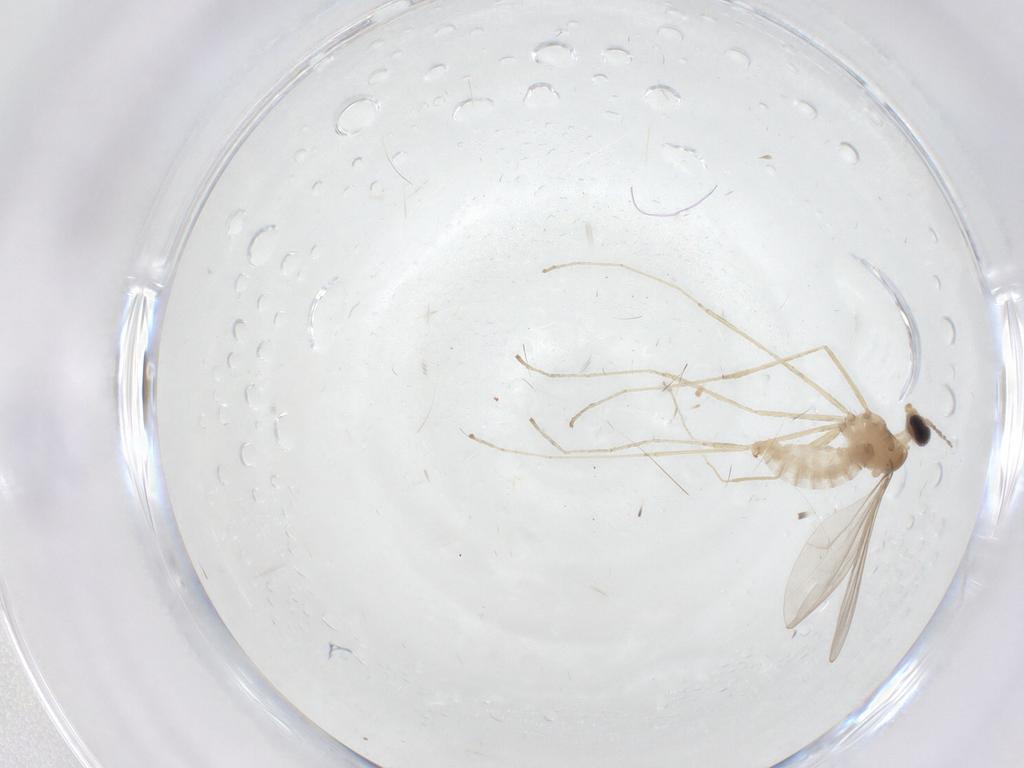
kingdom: Animalia
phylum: Arthropoda
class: Insecta
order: Diptera
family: Cecidomyiidae
